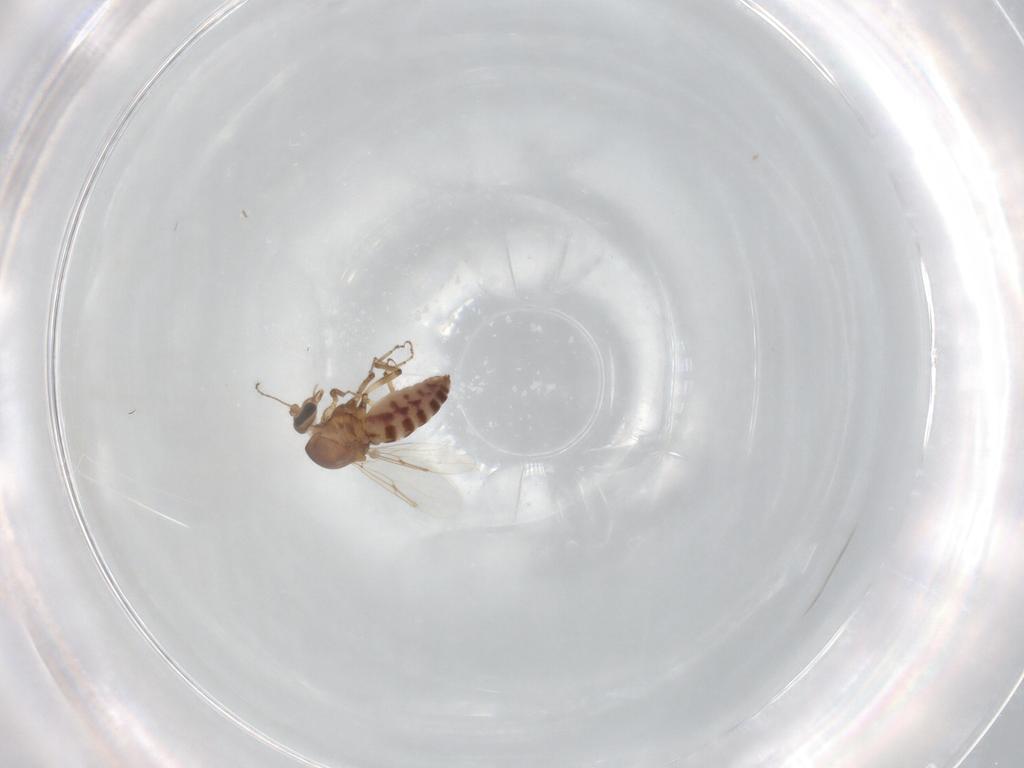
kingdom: Animalia
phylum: Arthropoda
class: Insecta
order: Diptera
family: Ceratopogonidae
